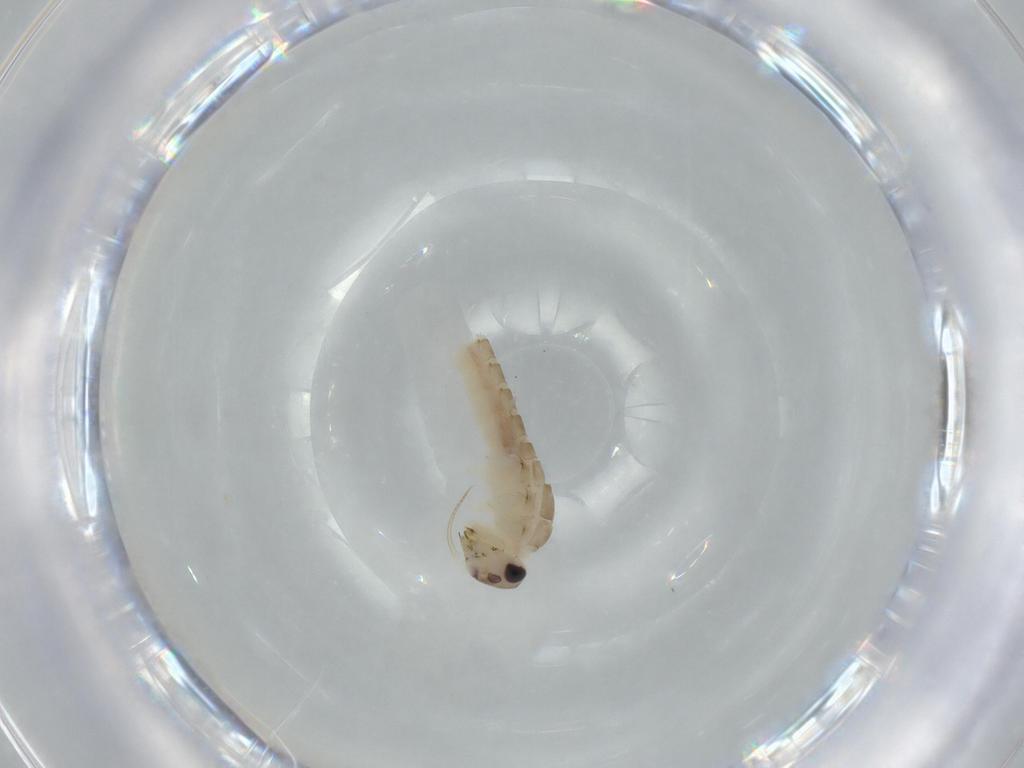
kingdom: Animalia
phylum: Arthropoda
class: Insecta
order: Ephemeroptera
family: Baetidae
